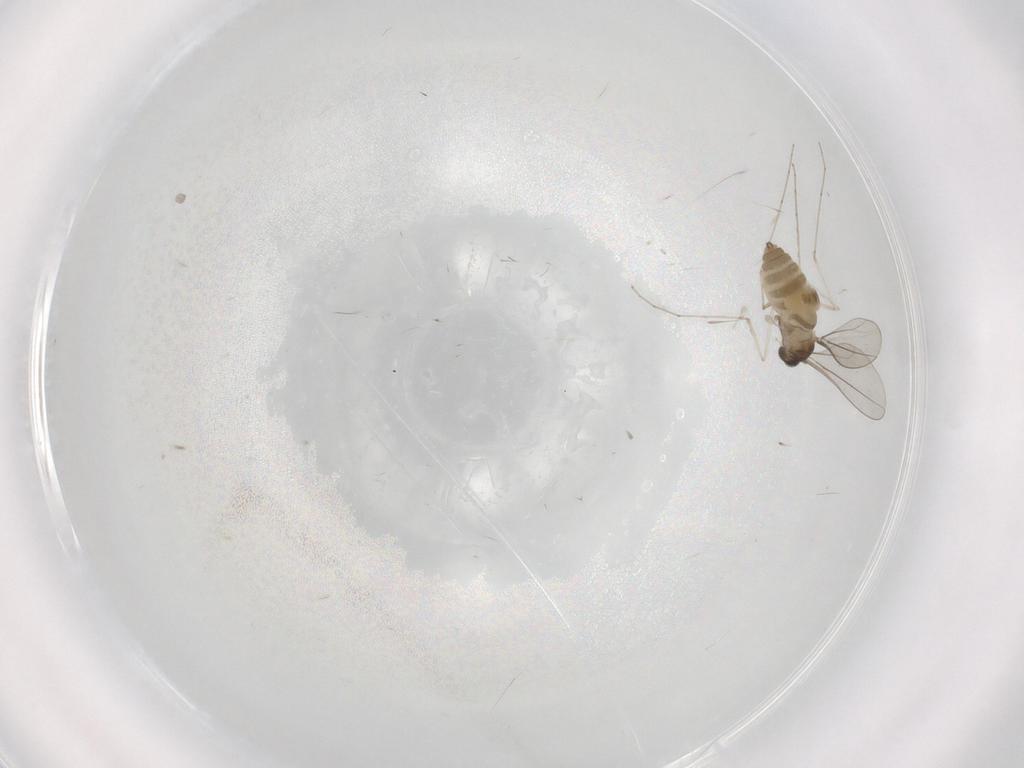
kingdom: Animalia
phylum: Arthropoda
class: Insecta
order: Diptera
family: Cecidomyiidae
